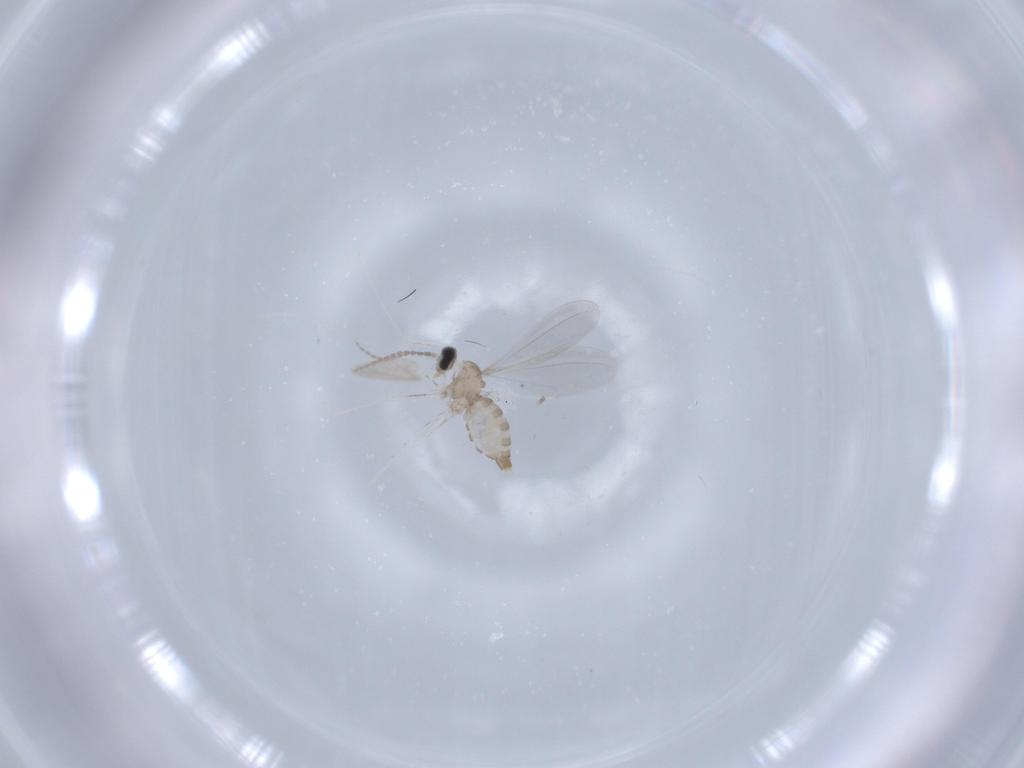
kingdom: Animalia
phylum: Arthropoda
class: Insecta
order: Diptera
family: Cecidomyiidae
